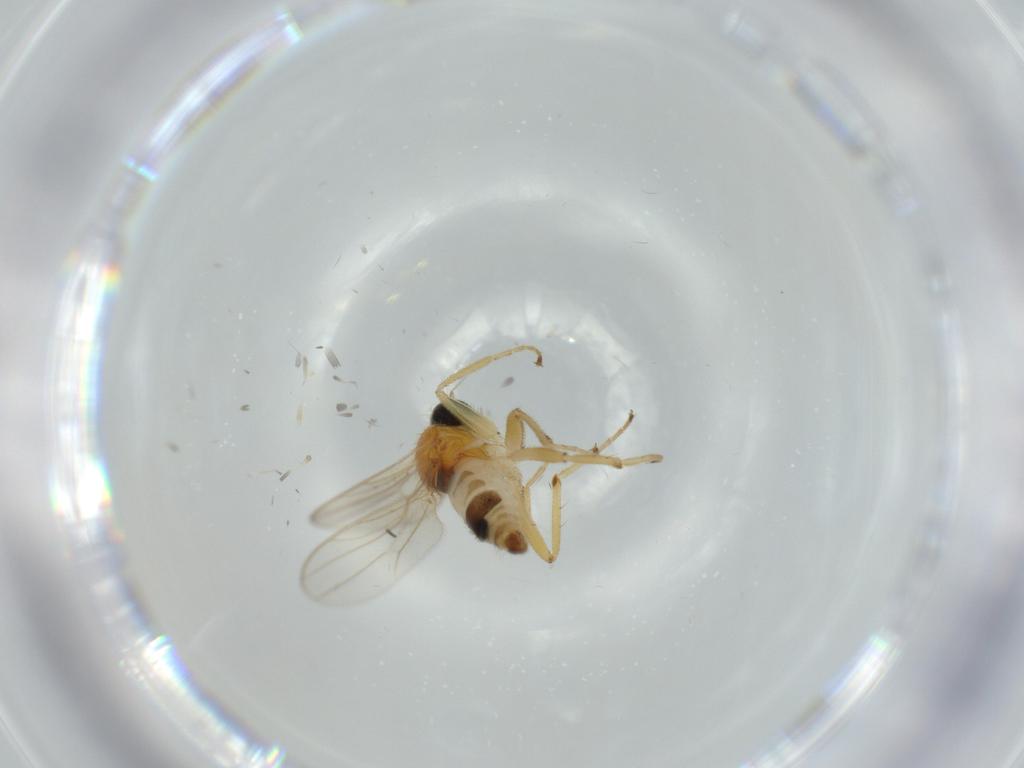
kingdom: Animalia
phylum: Arthropoda
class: Insecta
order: Diptera
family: Hybotidae
